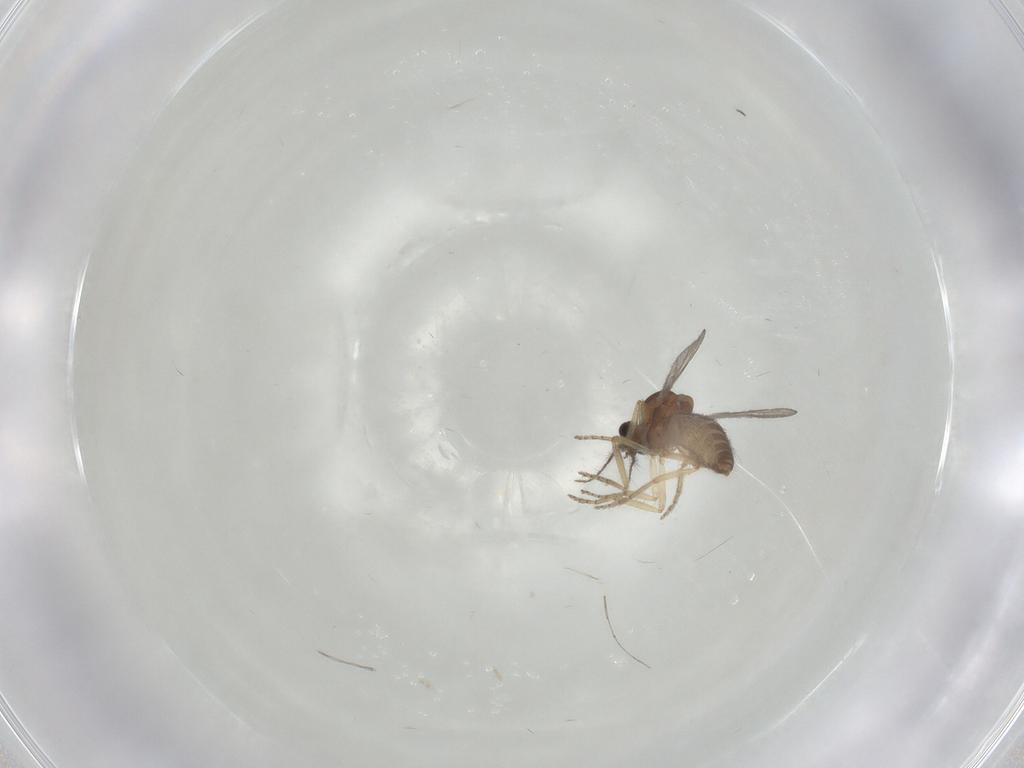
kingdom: Animalia
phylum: Arthropoda
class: Insecta
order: Diptera
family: Ceratopogonidae
